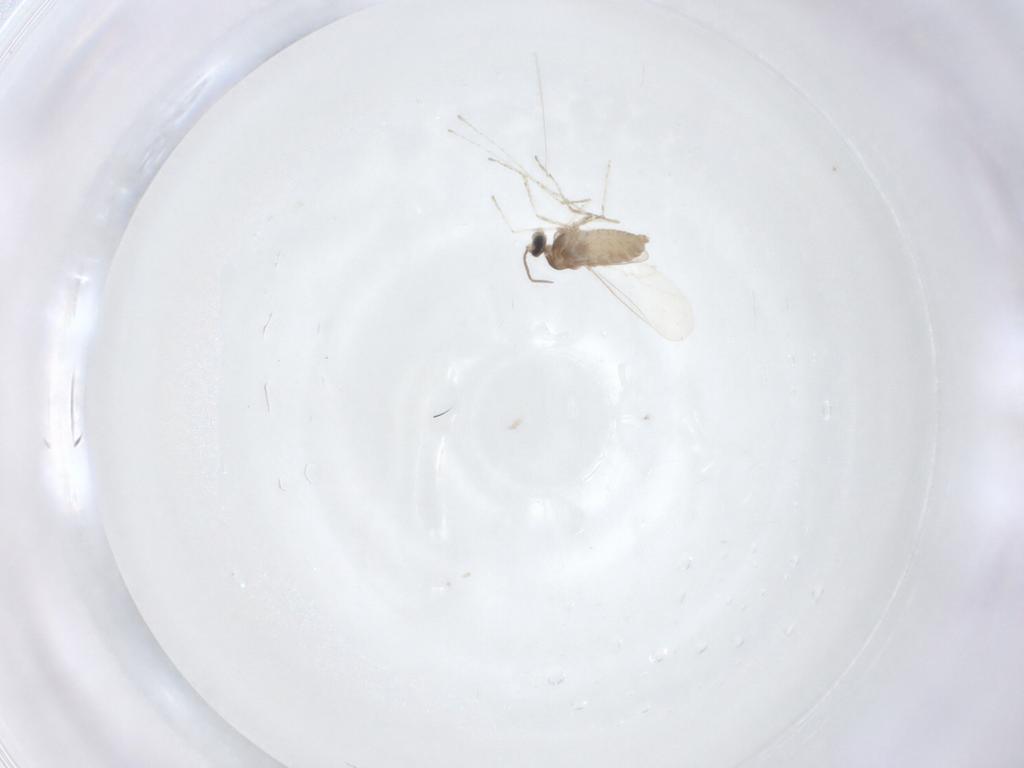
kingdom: Animalia
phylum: Arthropoda
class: Insecta
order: Diptera
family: Cecidomyiidae
